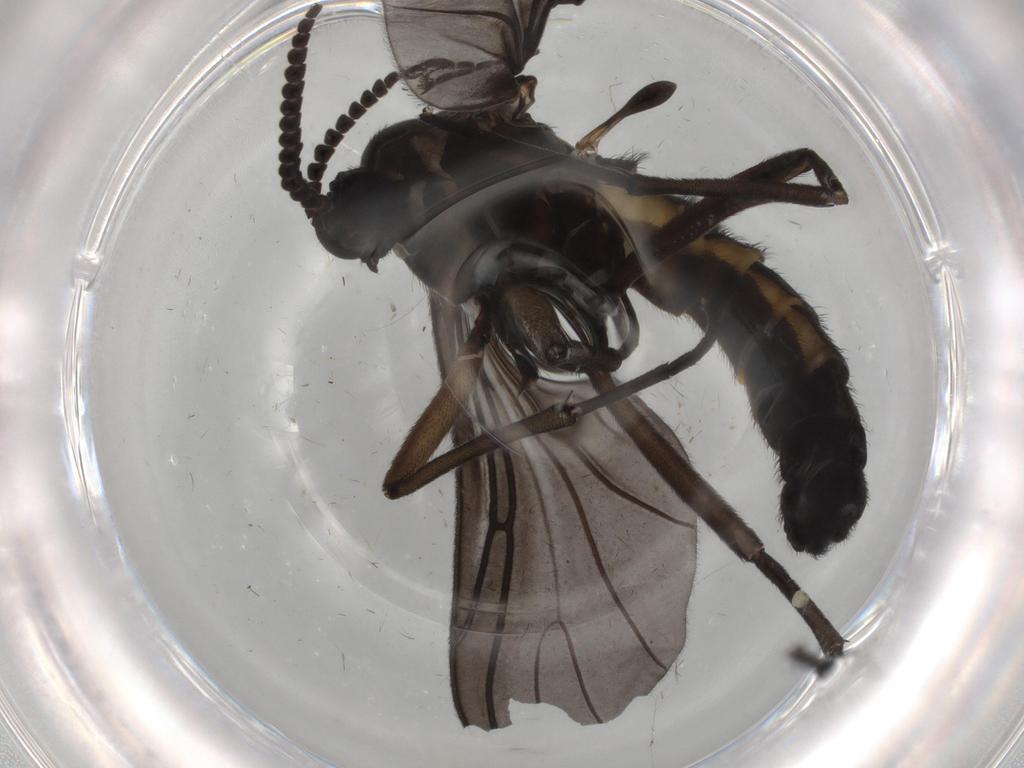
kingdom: Animalia
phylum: Arthropoda
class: Insecta
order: Diptera
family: Sciaridae
